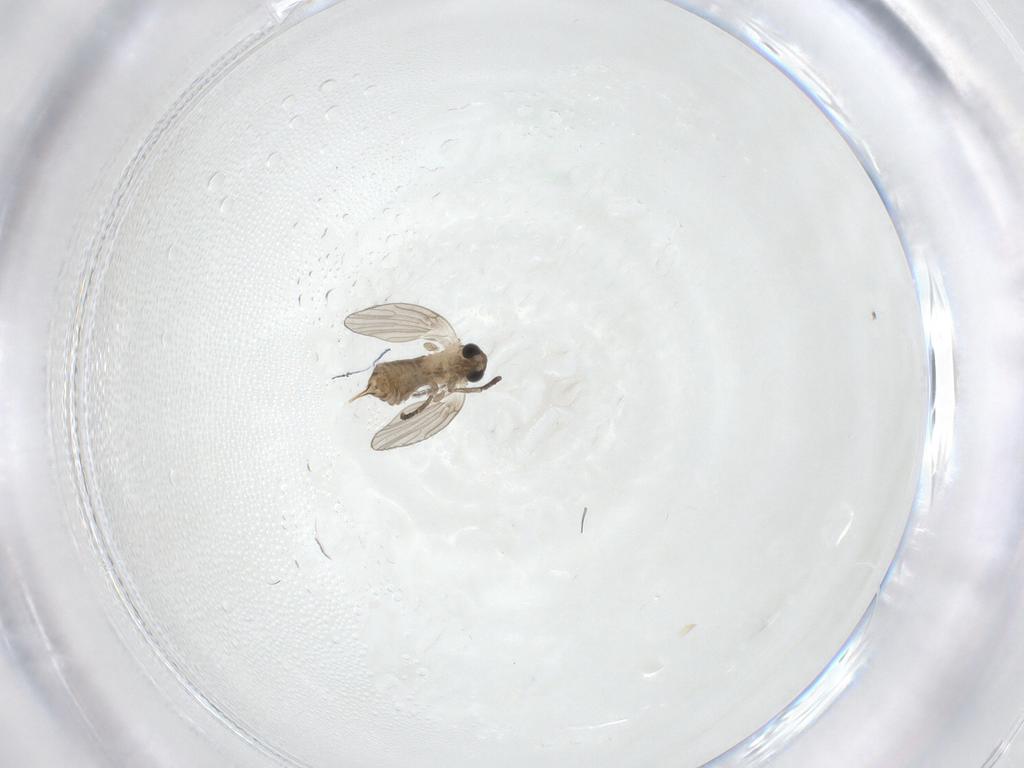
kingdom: Animalia
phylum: Arthropoda
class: Insecta
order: Diptera
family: Psychodidae
